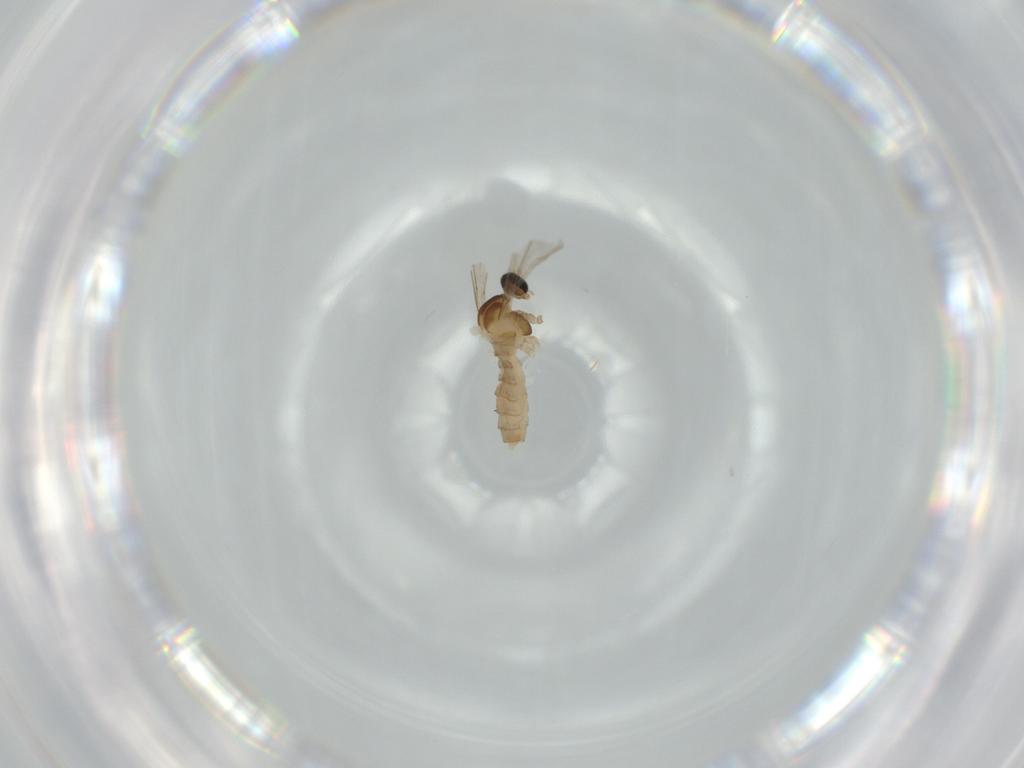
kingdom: Animalia
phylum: Arthropoda
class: Insecta
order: Diptera
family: Cecidomyiidae
